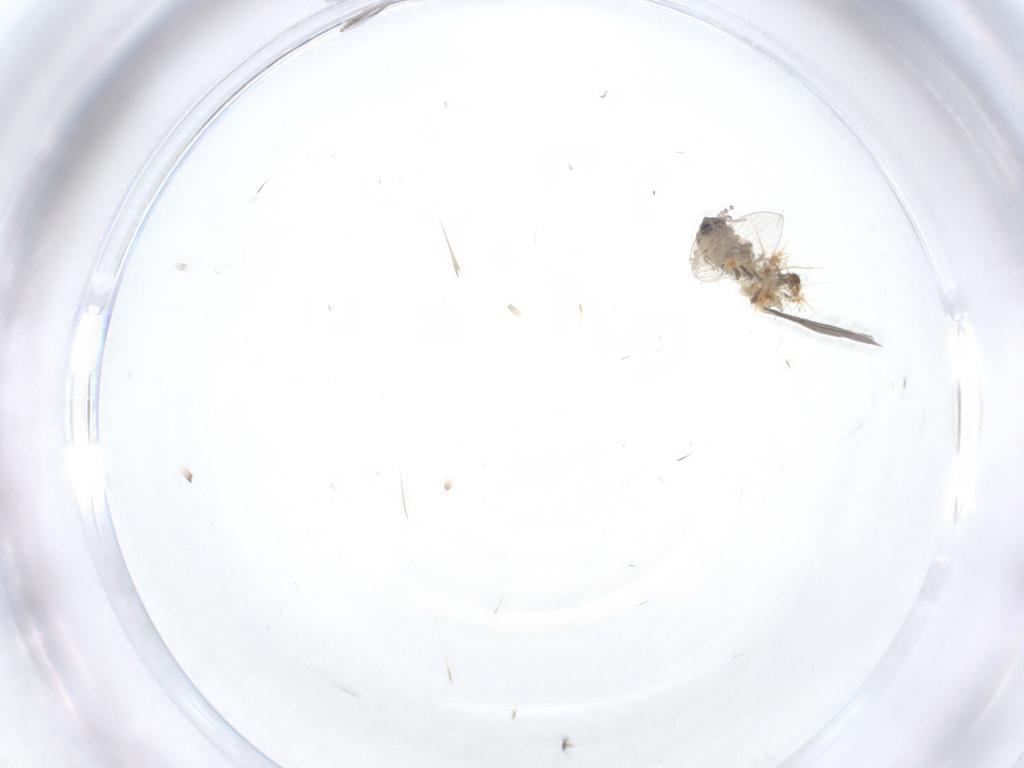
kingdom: Animalia
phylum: Arthropoda
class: Insecta
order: Diptera
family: Psychodidae
